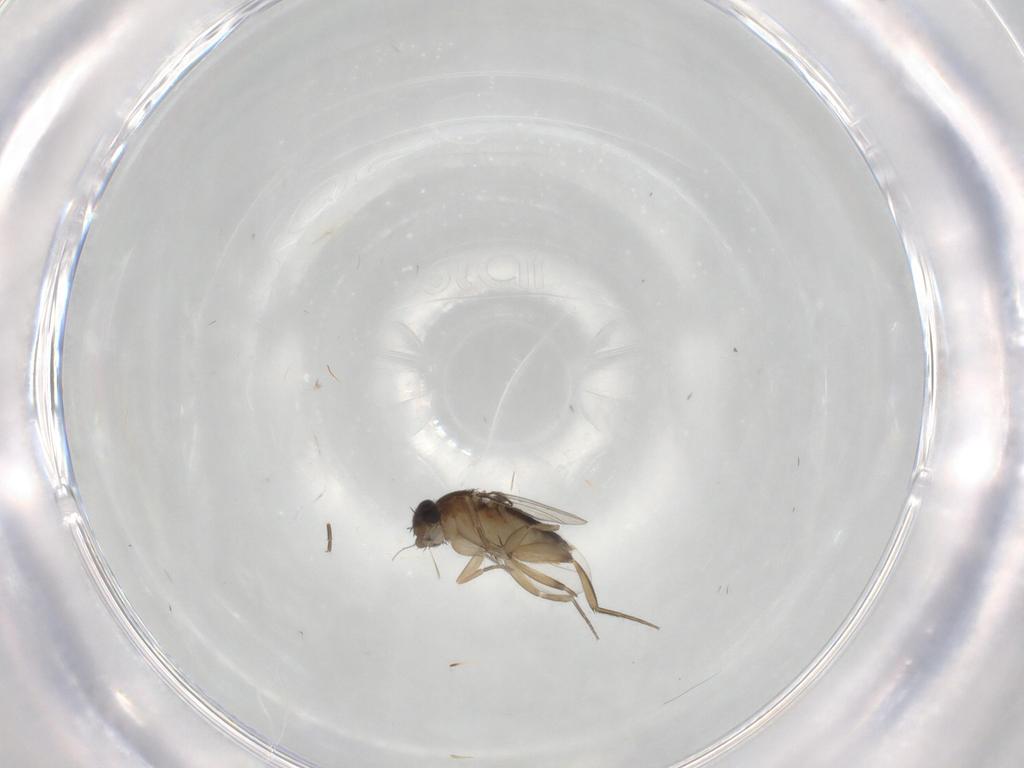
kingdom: Animalia
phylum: Arthropoda
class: Insecta
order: Diptera
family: Phoridae
